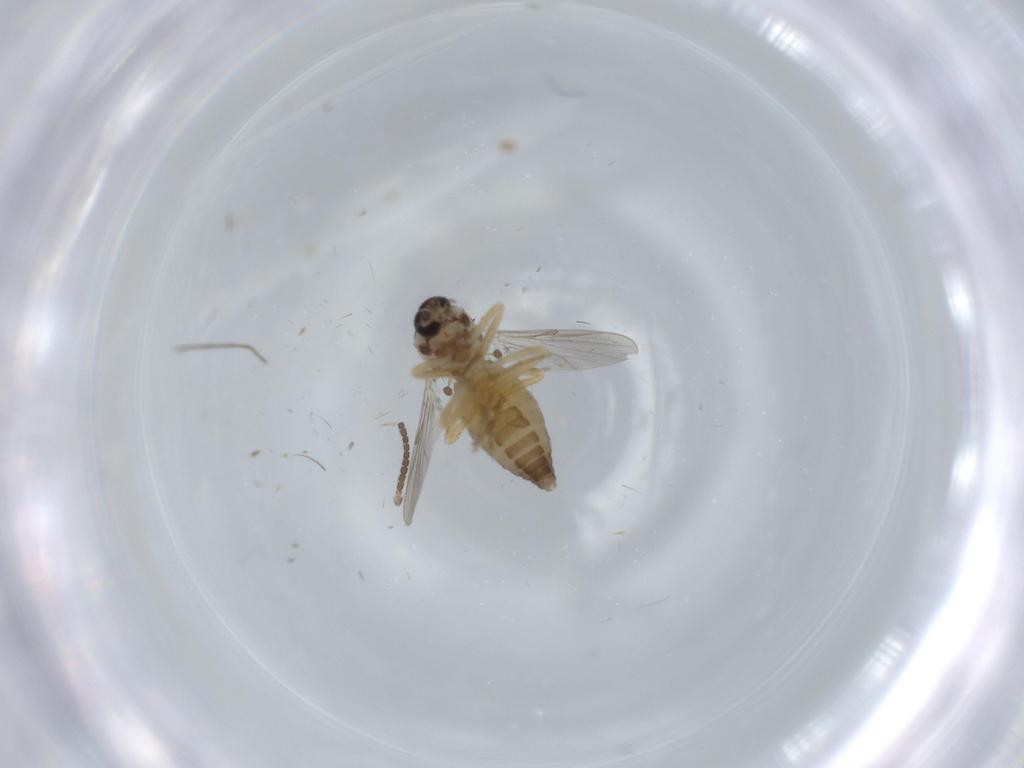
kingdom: Animalia
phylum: Arthropoda
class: Insecta
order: Diptera
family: Ceratopogonidae
